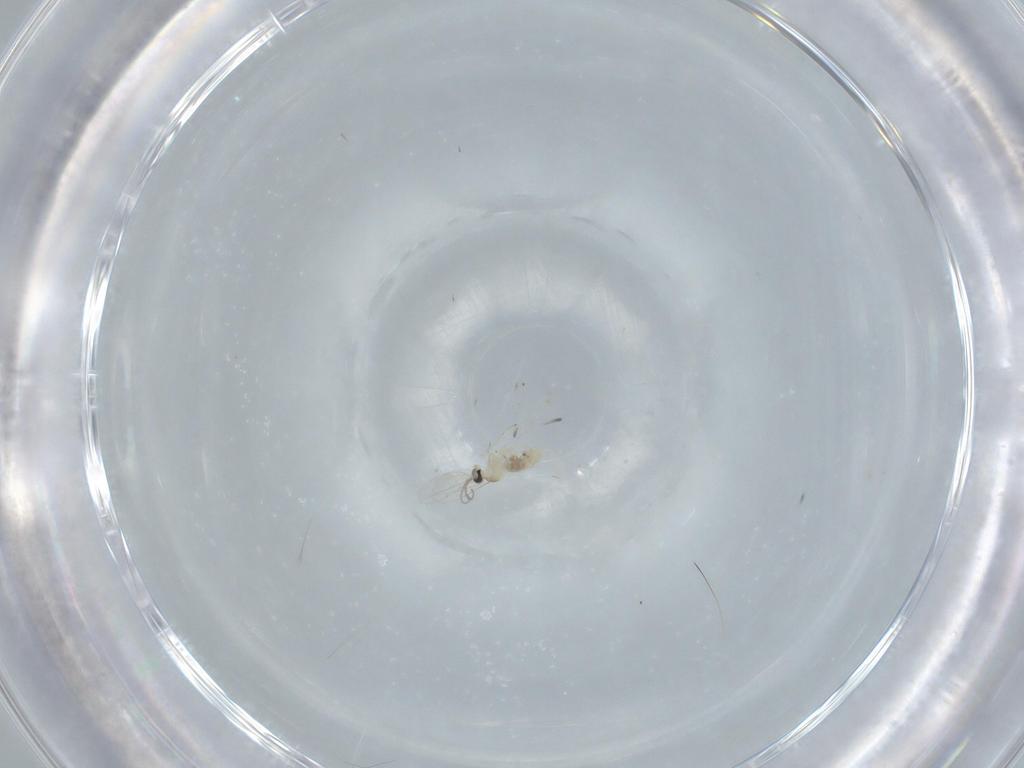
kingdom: Animalia
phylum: Arthropoda
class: Insecta
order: Diptera
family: Cecidomyiidae
